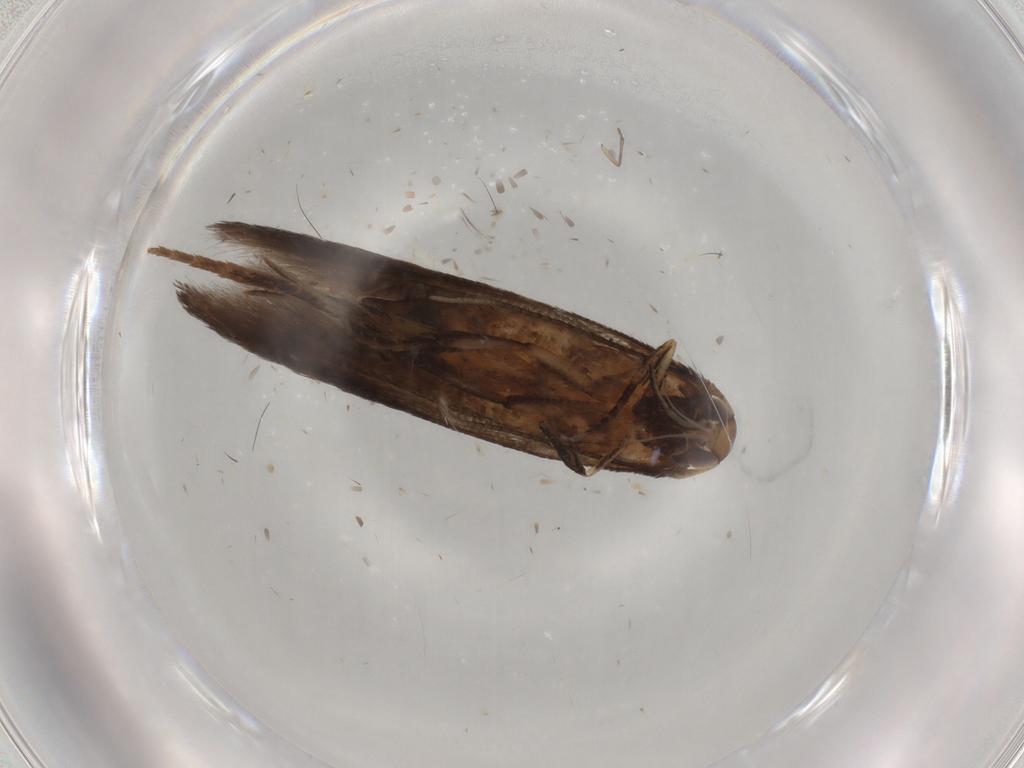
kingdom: Animalia
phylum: Arthropoda
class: Insecta
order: Lepidoptera
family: Cosmopterigidae
